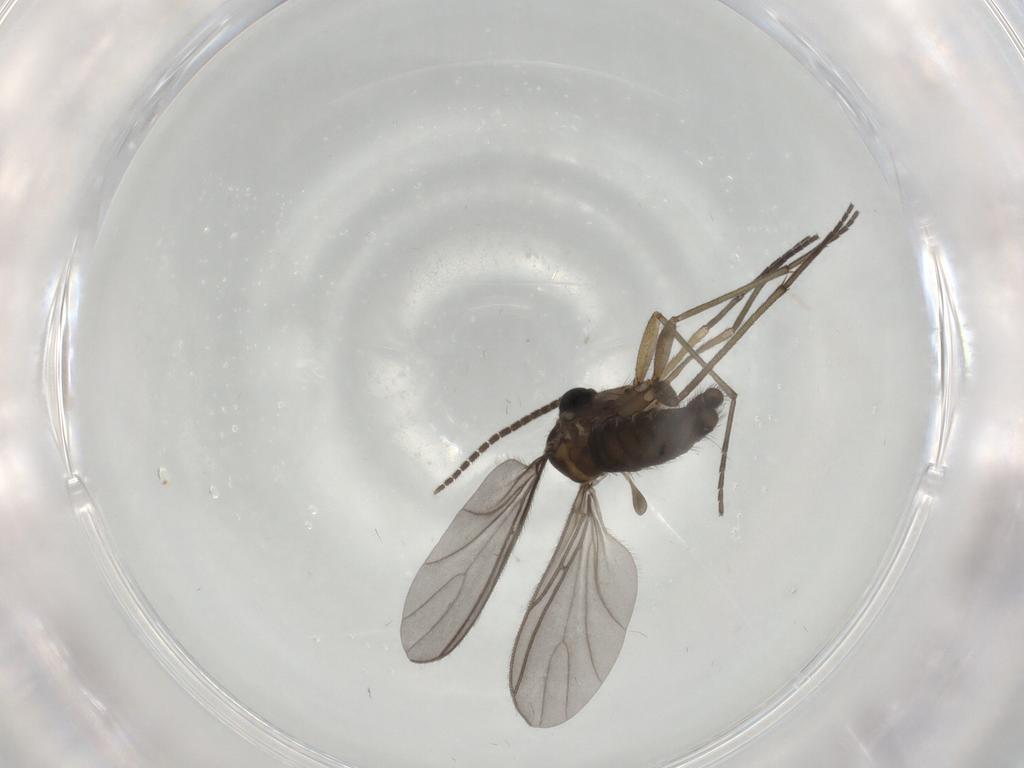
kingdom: Animalia
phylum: Arthropoda
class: Insecta
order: Diptera
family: Sciaridae
